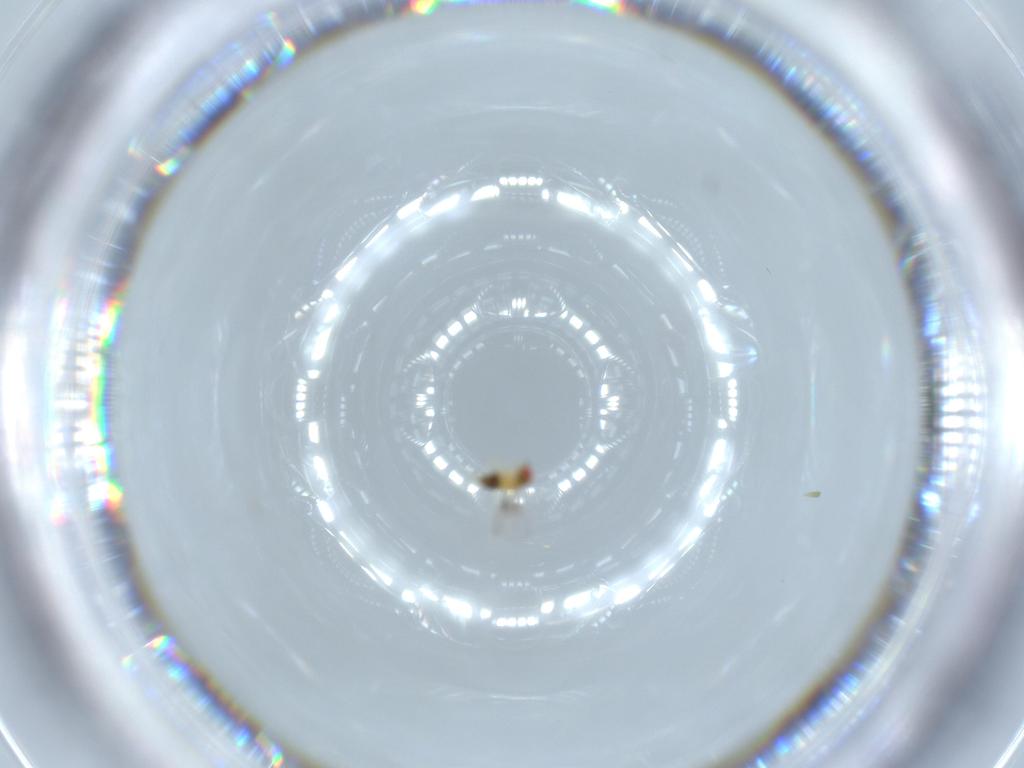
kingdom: Animalia
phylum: Arthropoda
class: Insecta
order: Hymenoptera
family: Trichogrammatidae
